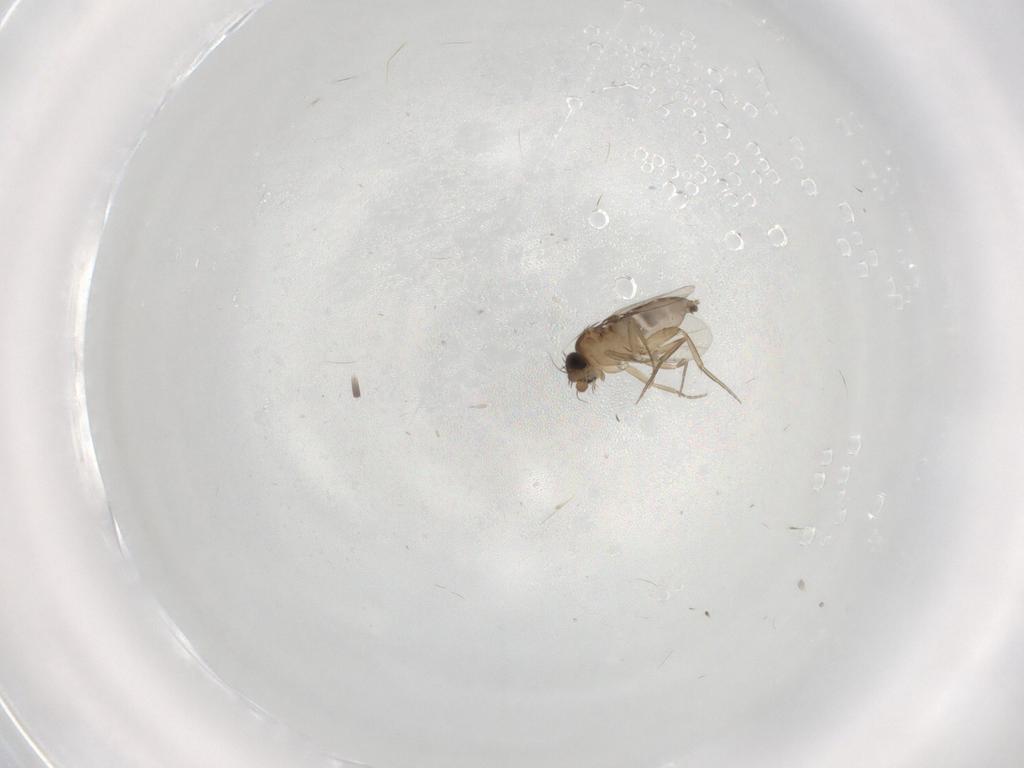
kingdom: Animalia
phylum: Arthropoda
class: Insecta
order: Diptera
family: Phoridae
